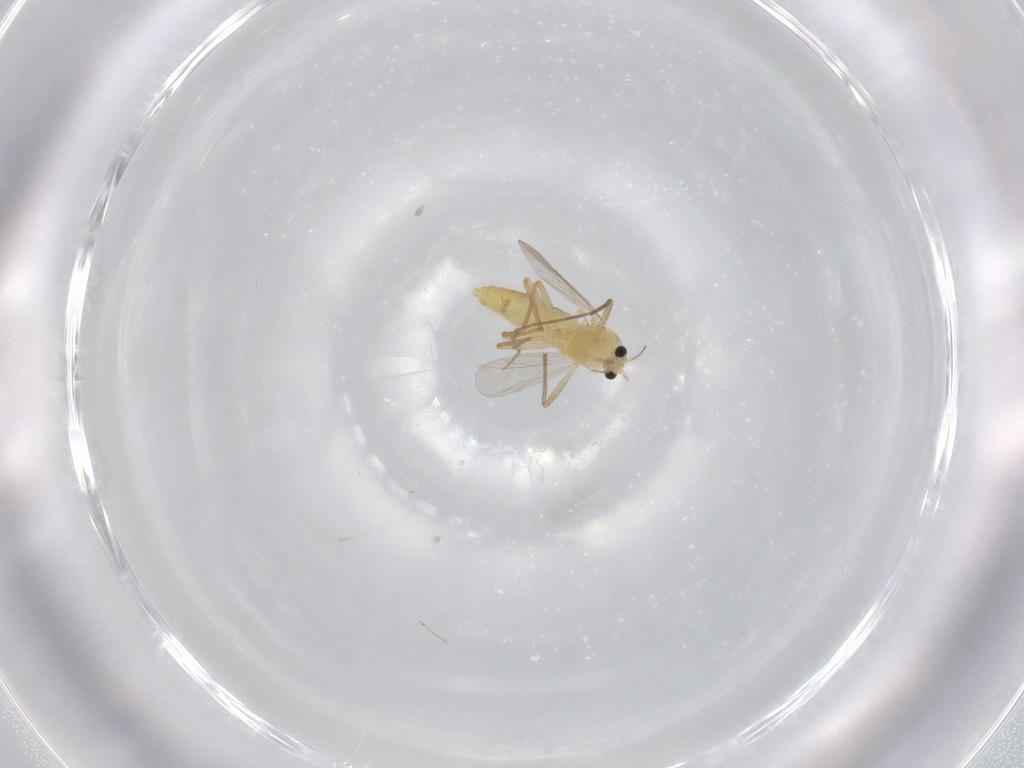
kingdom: Animalia
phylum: Arthropoda
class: Insecta
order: Diptera
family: Chironomidae
